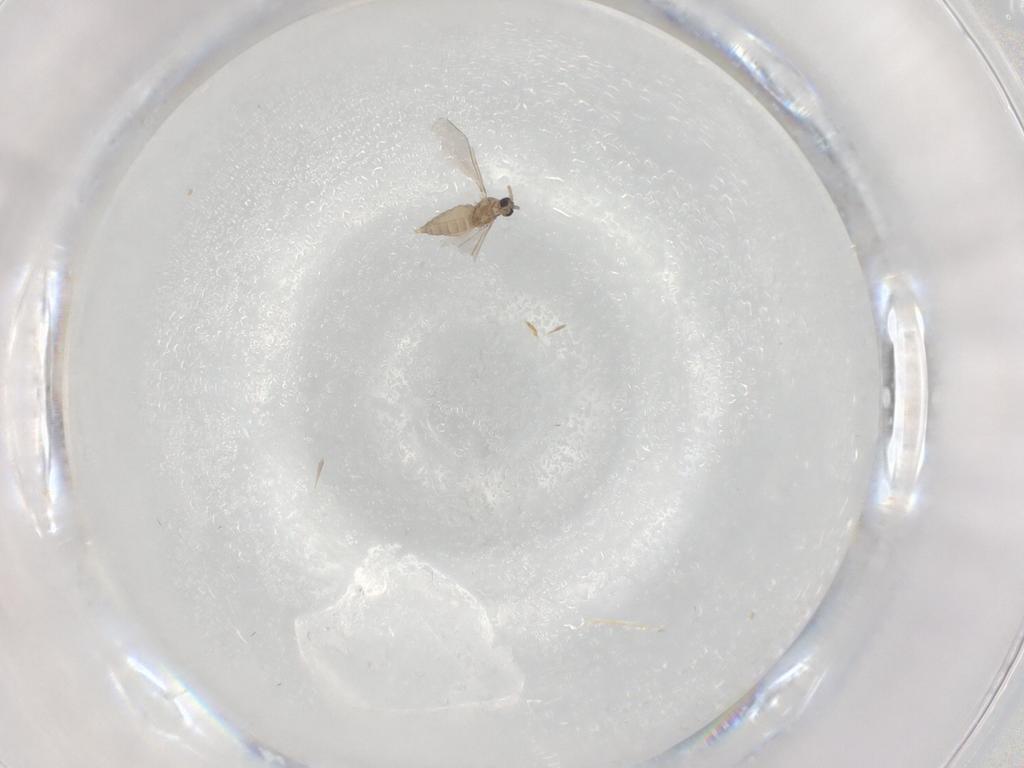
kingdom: Animalia
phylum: Arthropoda
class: Insecta
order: Diptera
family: Cecidomyiidae
